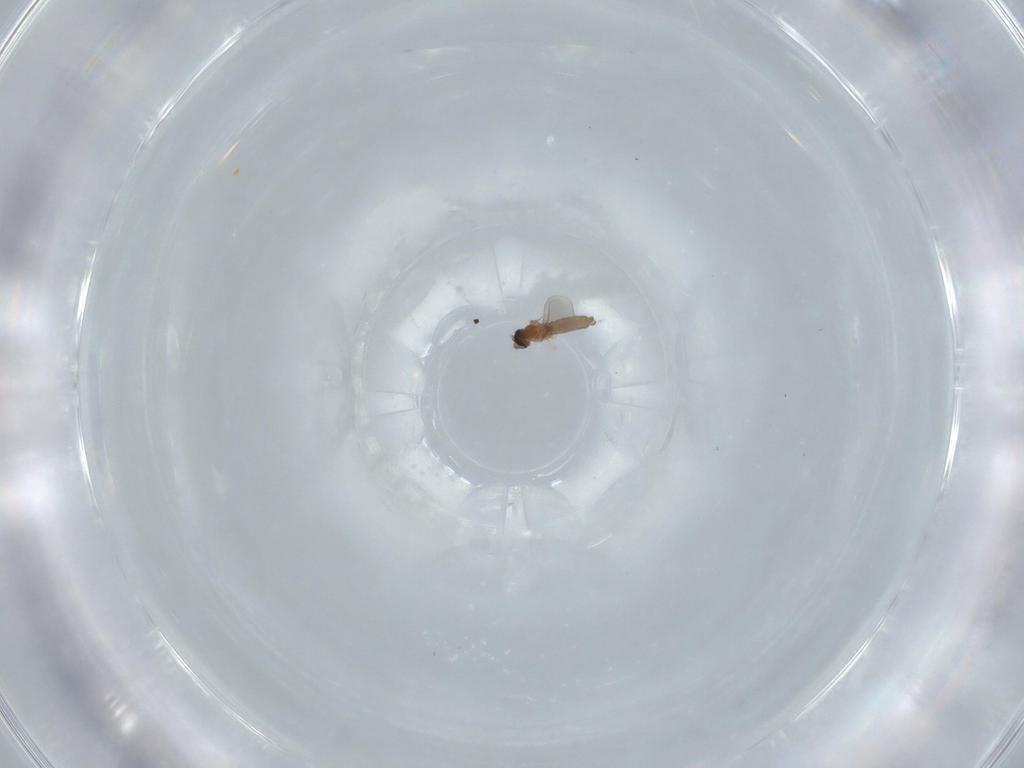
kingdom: Animalia
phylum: Arthropoda
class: Insecta
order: Diptera
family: Cecidomyiidae
